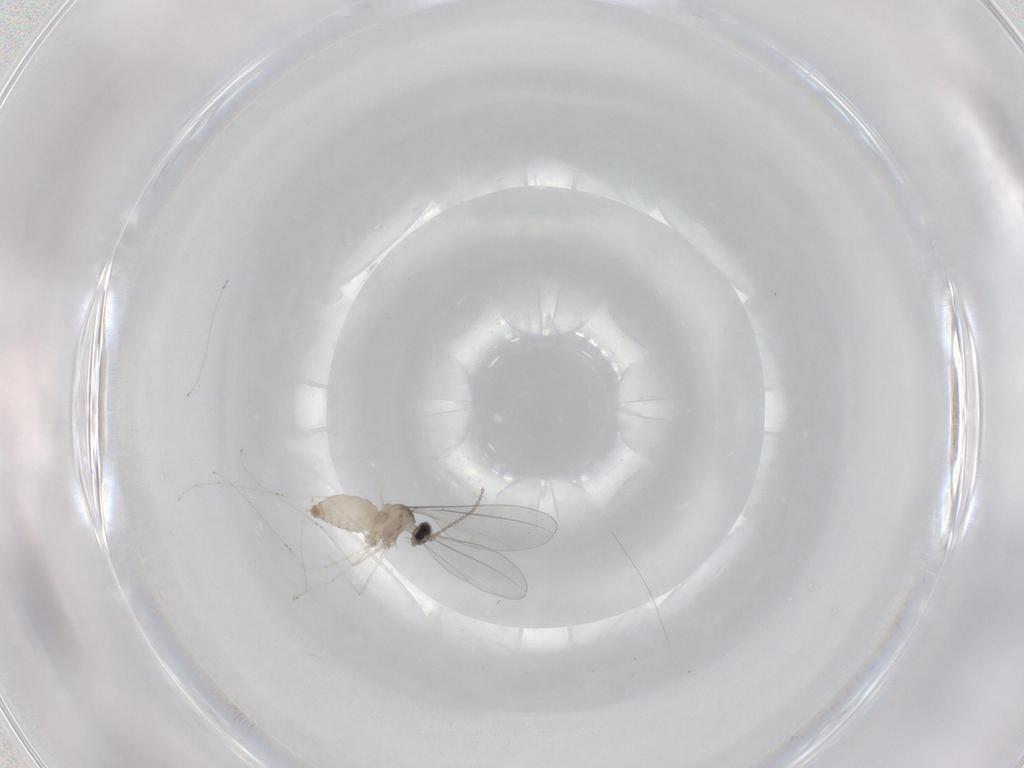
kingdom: Animalia
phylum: Arthropoda
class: Insecta
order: Diptera
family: Cecidomyiidae
